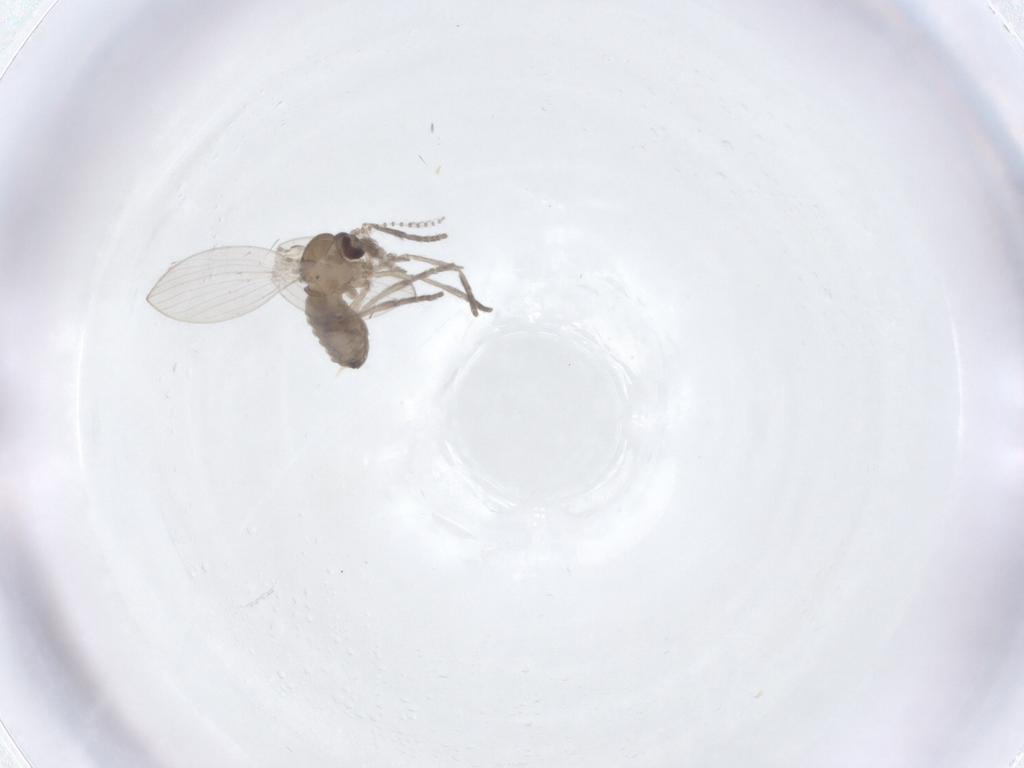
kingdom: Animalia
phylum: Arthropoda
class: Insecta
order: Diptera
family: Psychodidae
